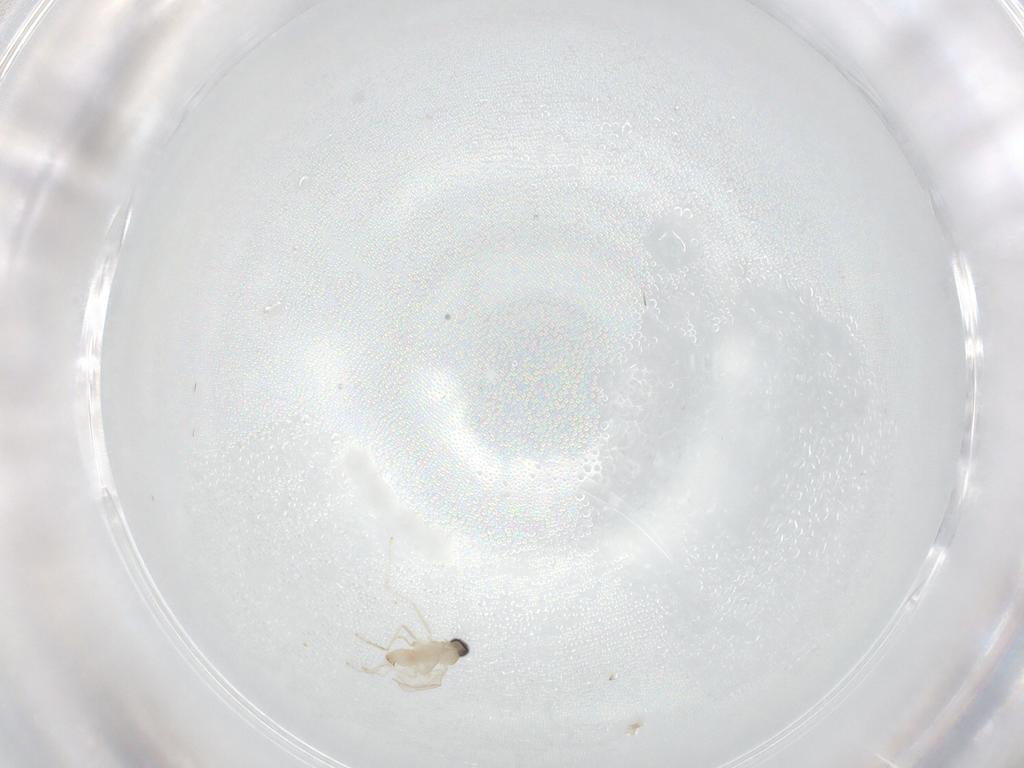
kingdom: Animalia
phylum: Arthropoda
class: Insecta
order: Diptera
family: Cecidomyiidae
